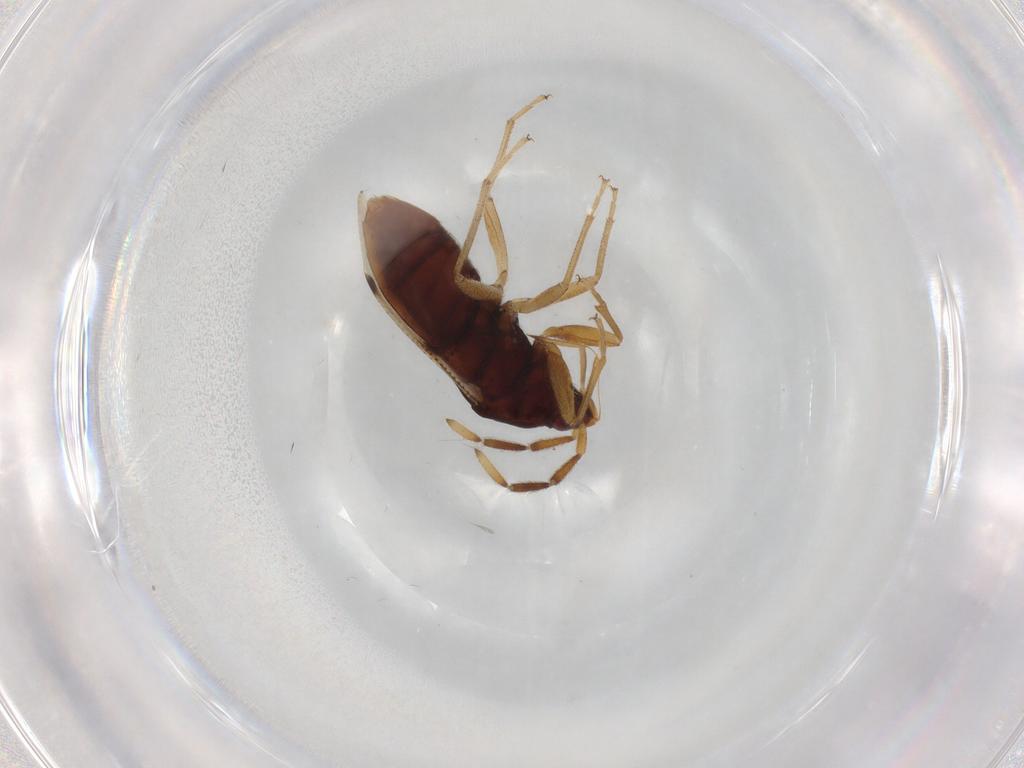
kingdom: Animalia
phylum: Arthropoda
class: Insecta
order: Hemiptera
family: Rhyparochromidae
